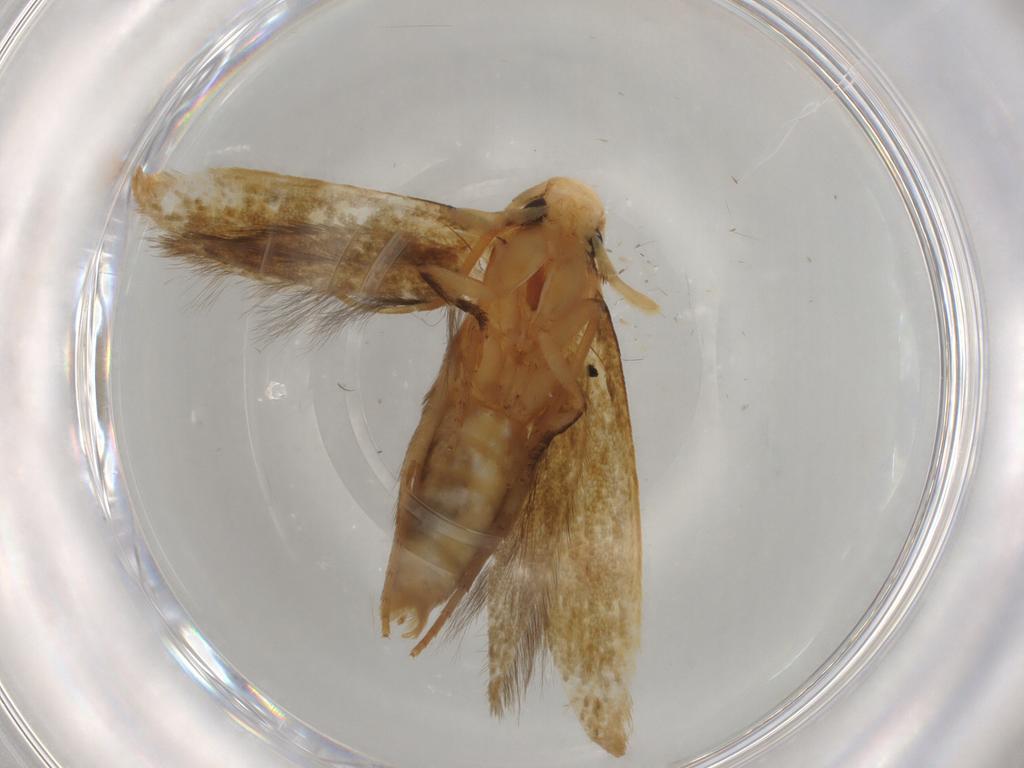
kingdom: Animalia
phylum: Arthropoda
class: Insecta
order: Lepidoptera
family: Tineidae
